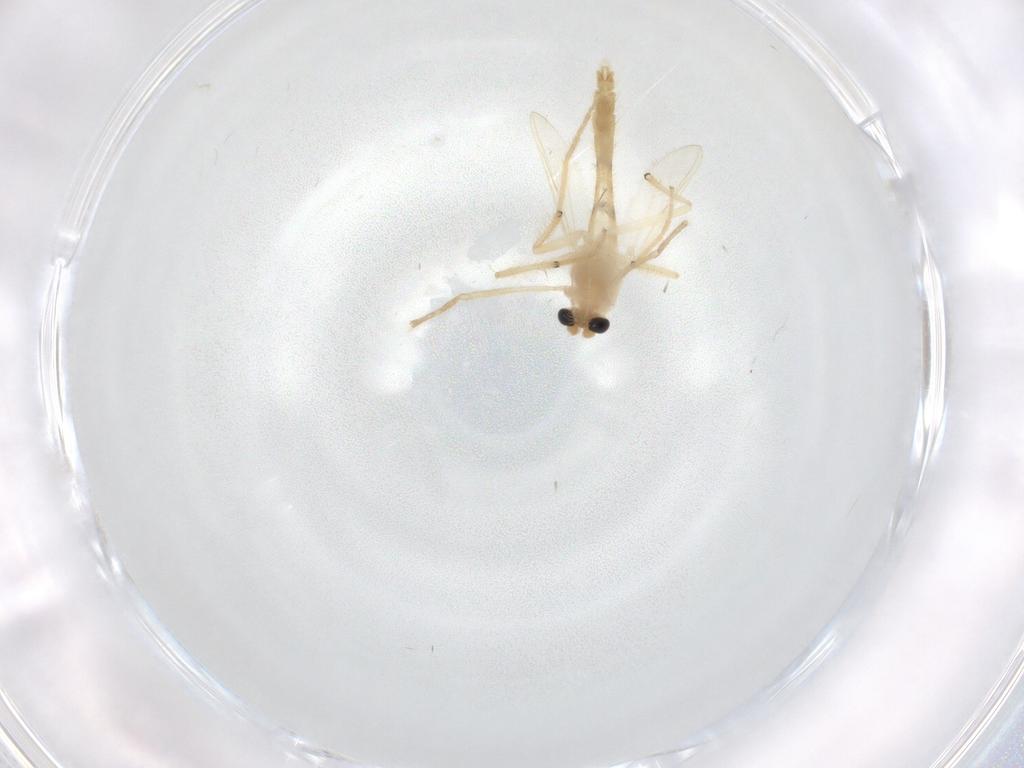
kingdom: Animalia
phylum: Arthropoda
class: Insecta
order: Diptera
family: Chironomidae
